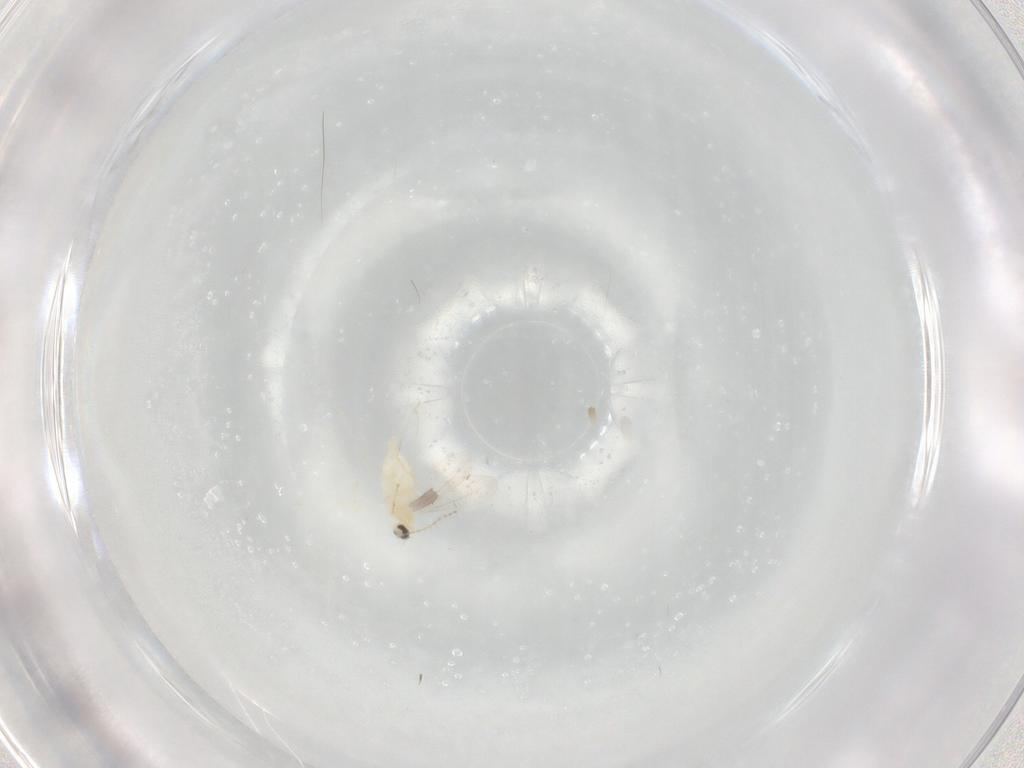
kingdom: Animalia
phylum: Arthropoda
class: Insecta
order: Diptera
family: Cecidomyiidae
